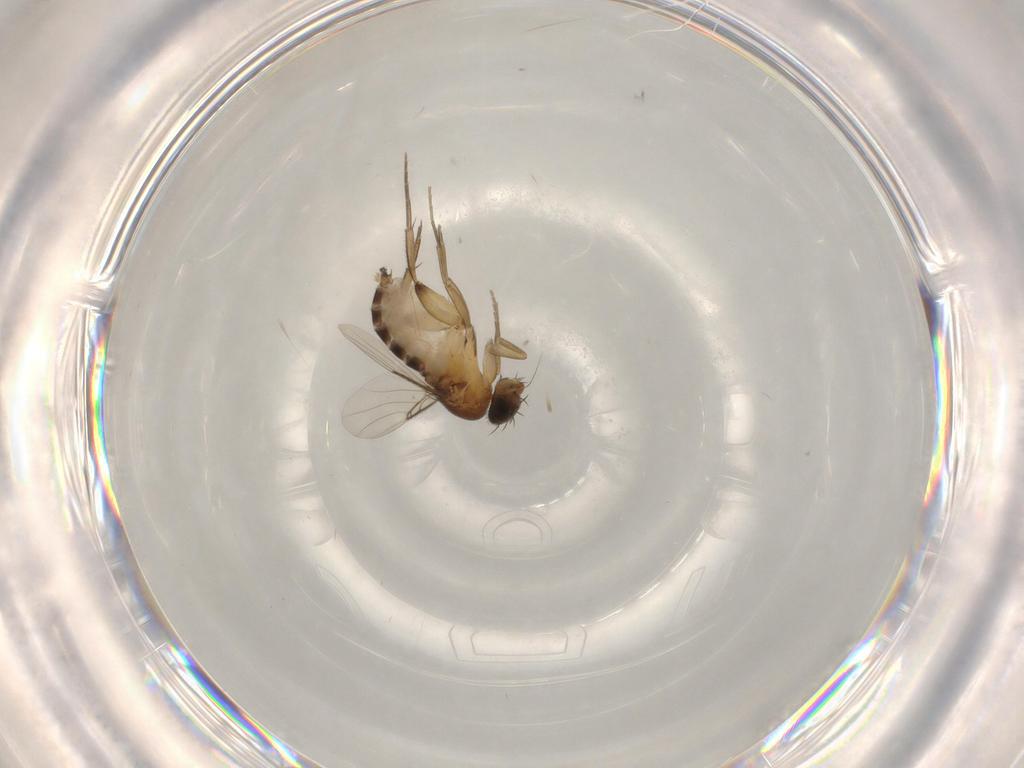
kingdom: Animalia
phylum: Arthropoda
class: Insecta
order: Diptera
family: Phoridae
